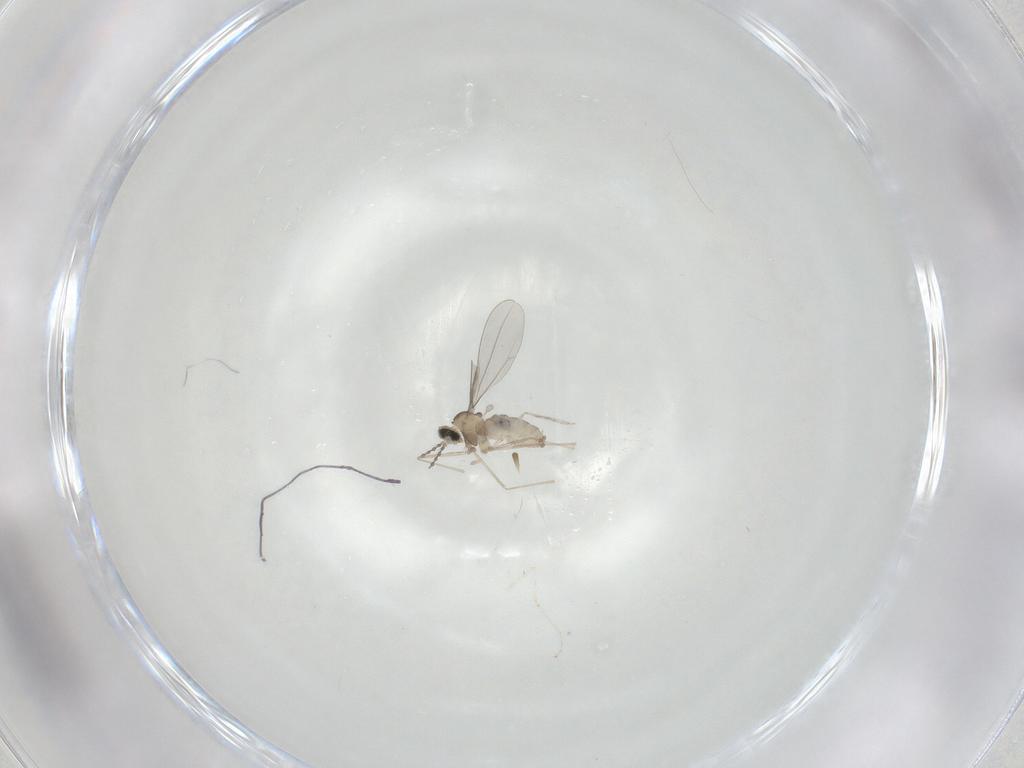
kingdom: Animalia
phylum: Arthropoda
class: Insecta
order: Diptera
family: Cecidomyiidae
